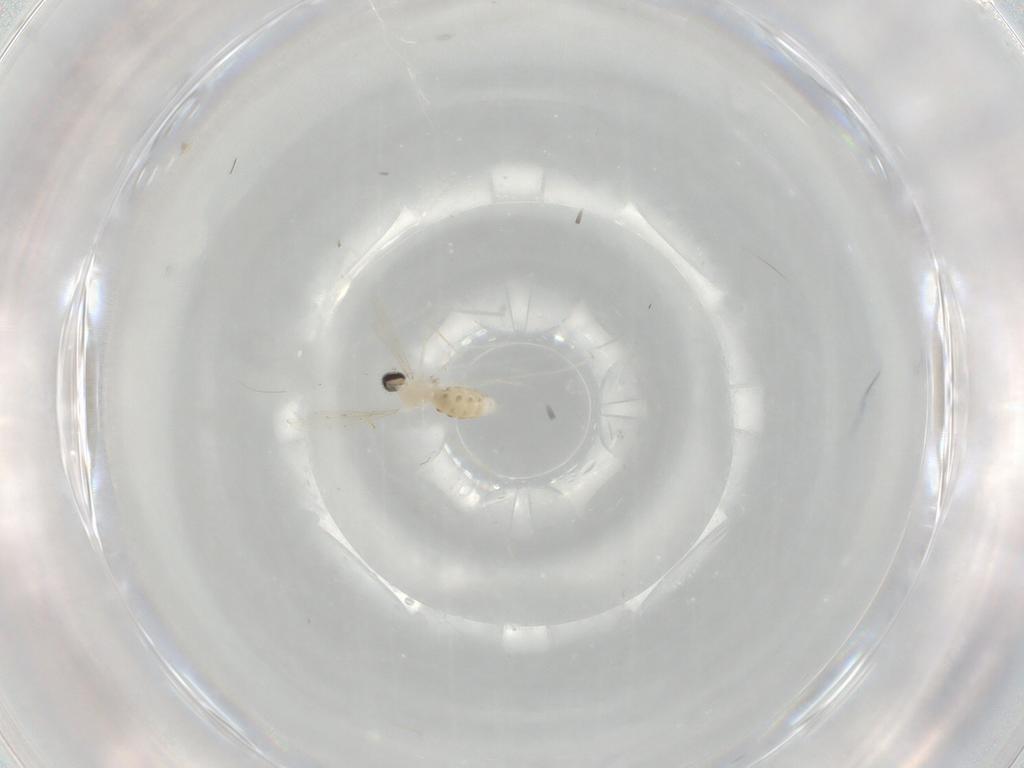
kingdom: Animalia
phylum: Arthropoda
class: Insecta
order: Diptera
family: Cecidomyiidae
